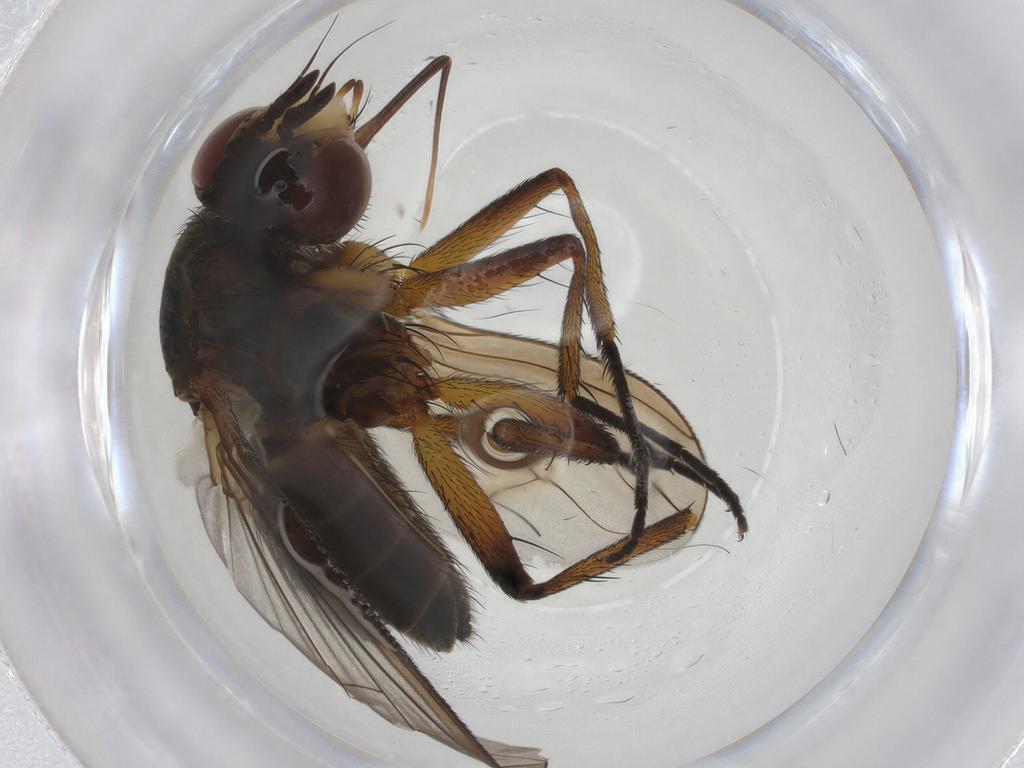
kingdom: Animalia
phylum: Arthropoda
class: Insecta
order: Diptera
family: Tachinidae
